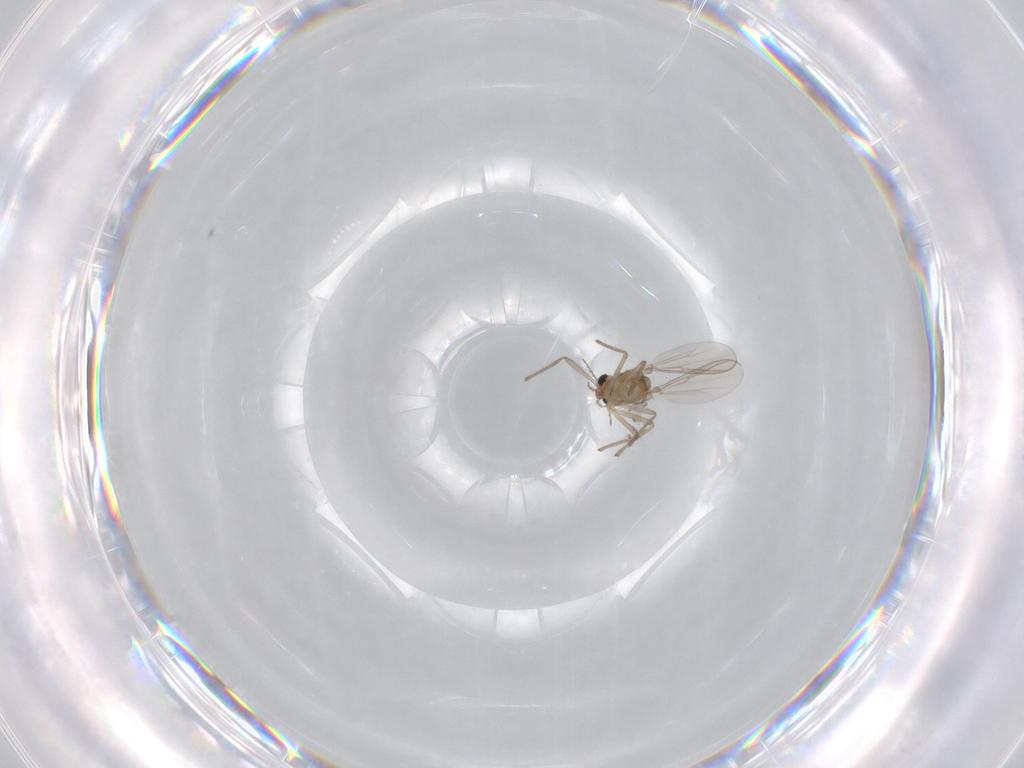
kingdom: Animalia
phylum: Arthropoda
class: Insecta
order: Diptera
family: Chironomidae
